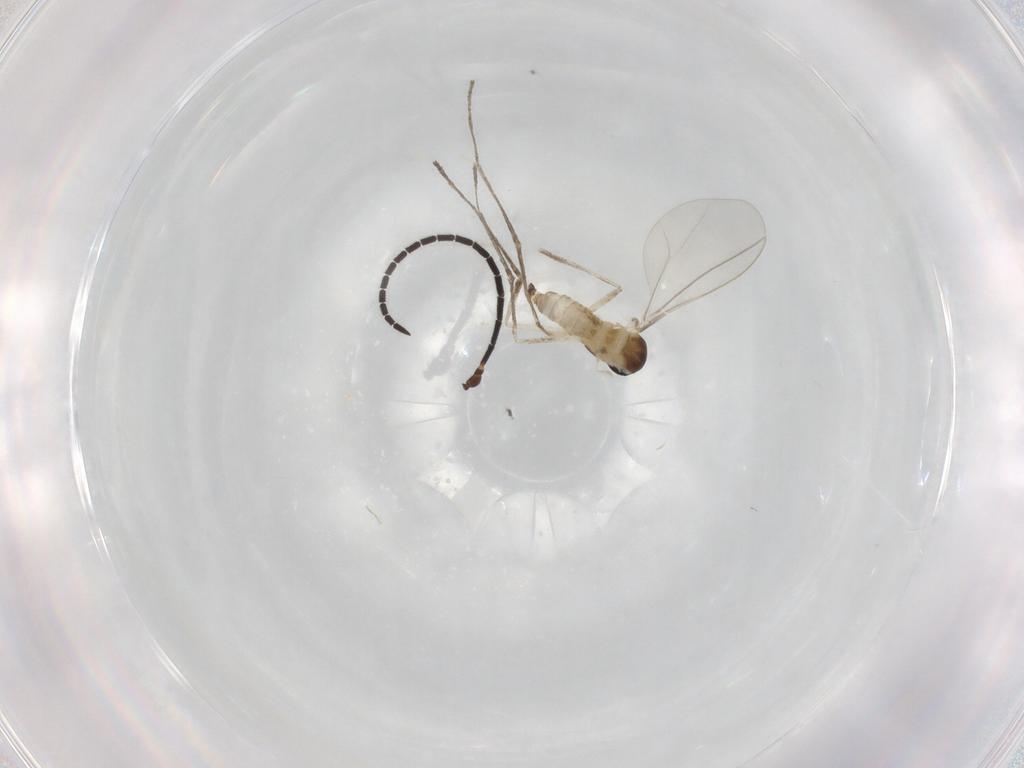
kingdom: Animalia
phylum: Arthropoda
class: Insecta
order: Diptera
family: Cecidomyiidae
